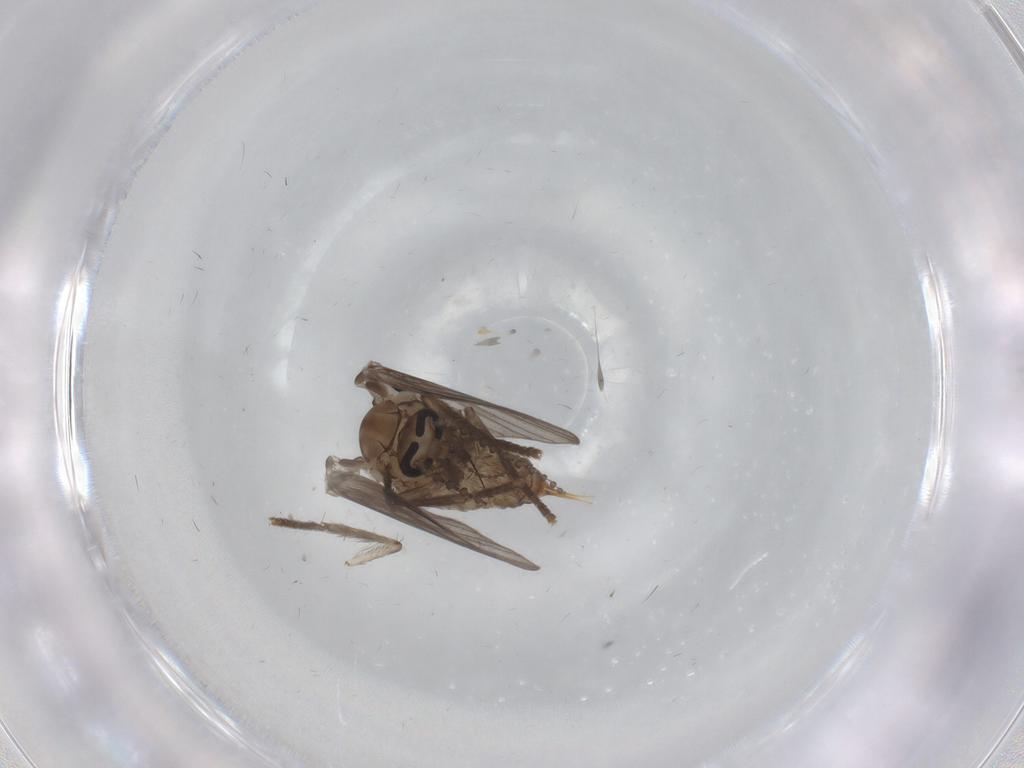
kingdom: Animalia
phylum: Arthropoda
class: Insecta
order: Diptera
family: Psychodidae
